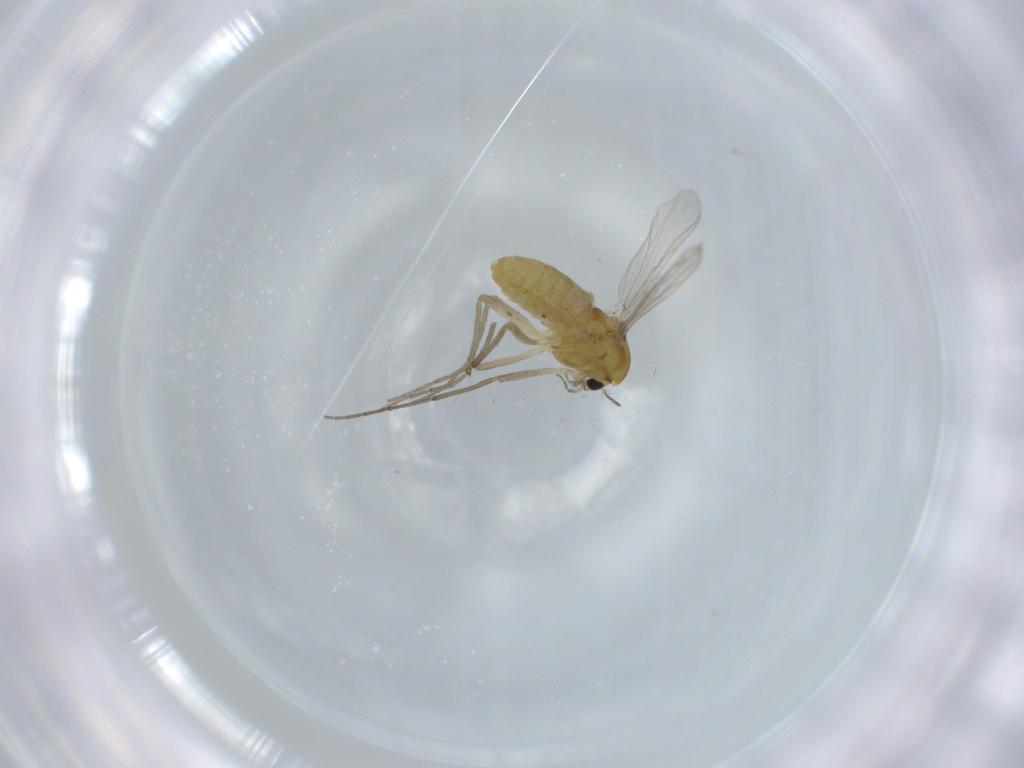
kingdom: Animalia
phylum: Arthropoda
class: Insecta
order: Diptera
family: Chironomidae
